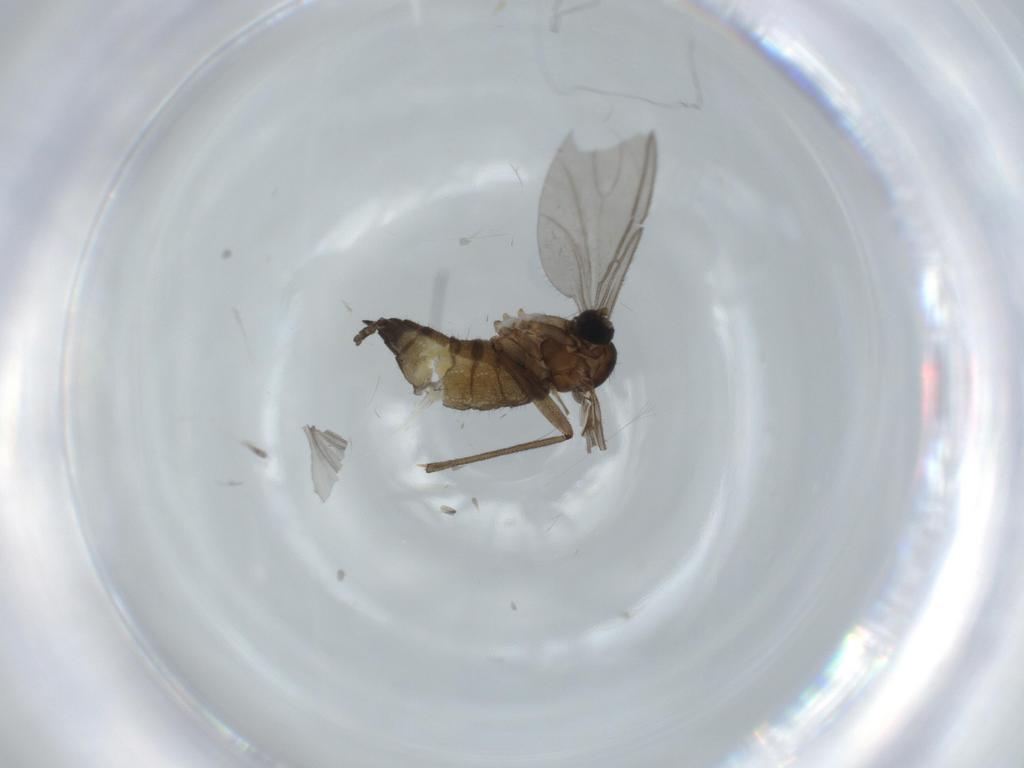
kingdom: Animalia
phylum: Arthropoda
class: Insecta
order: Diptera
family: Sciaridae
